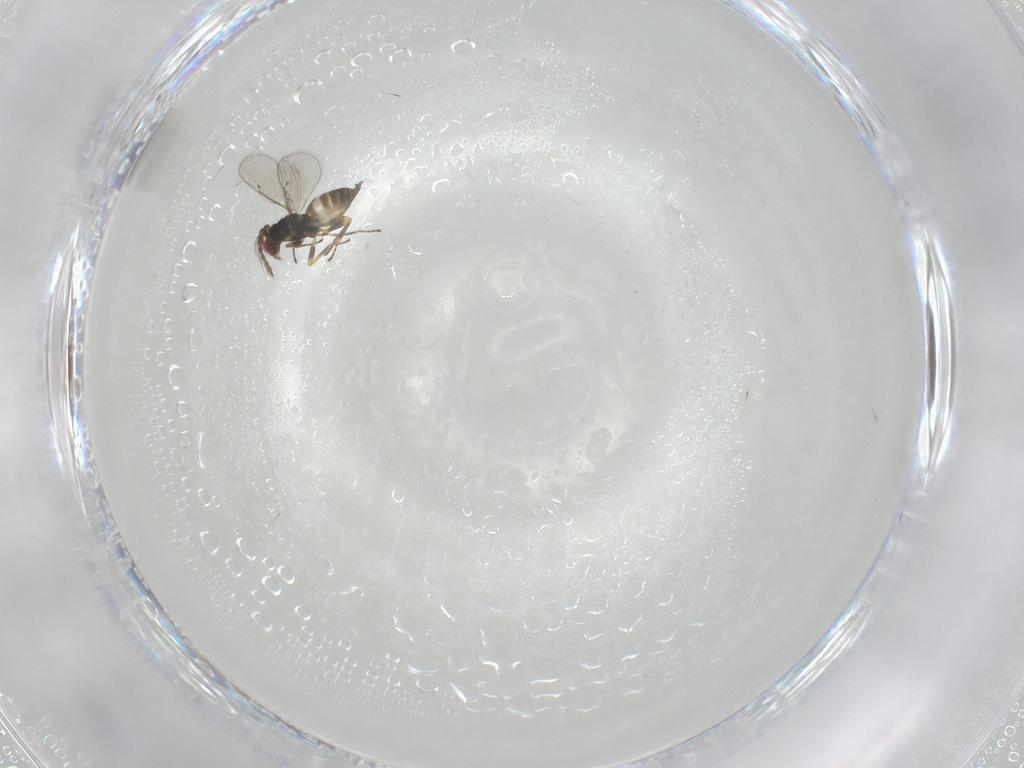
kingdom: Animalia
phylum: Arthropoda
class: Insecta
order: Hymenoptera
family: Eulophidae
